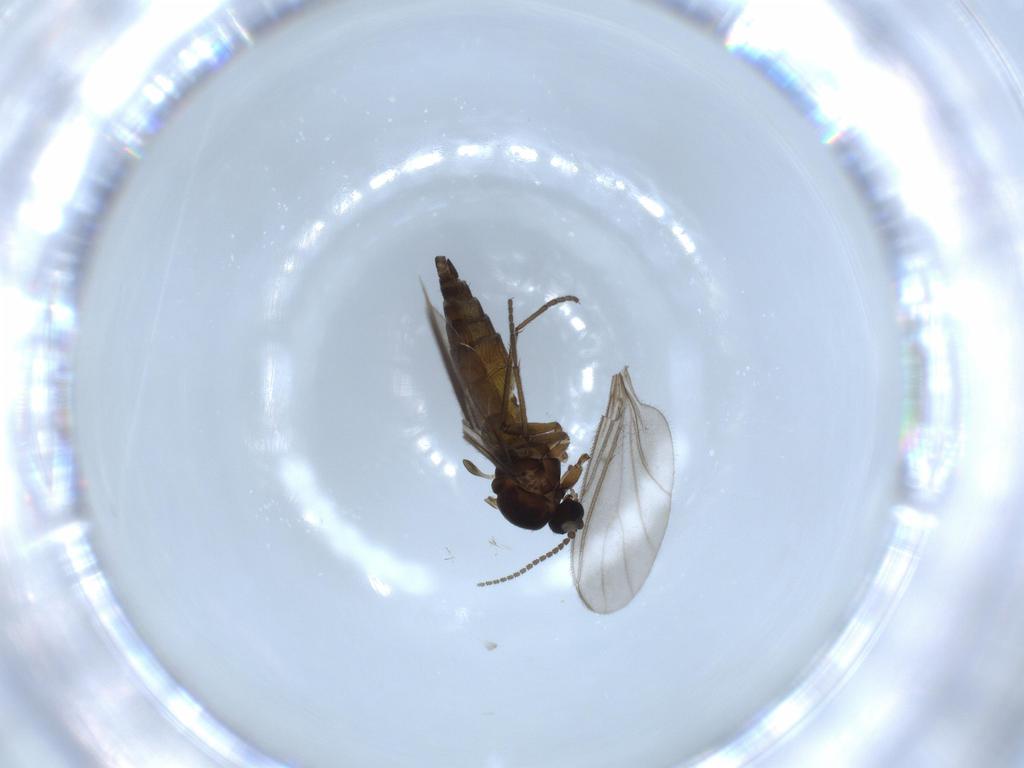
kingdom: Animalia
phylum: Arthropoda
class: Insecta
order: Diptera
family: Sciaridae
